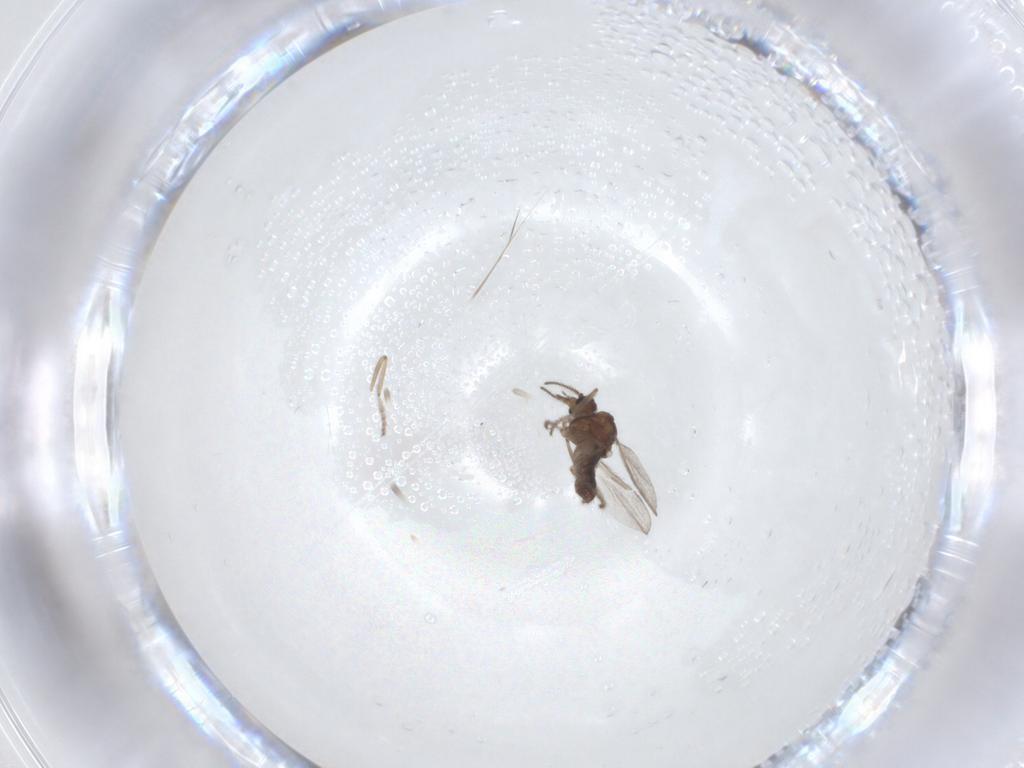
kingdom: Animalia
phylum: Arthropoda
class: Insecta
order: Diptera
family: Ceratopogonidae
